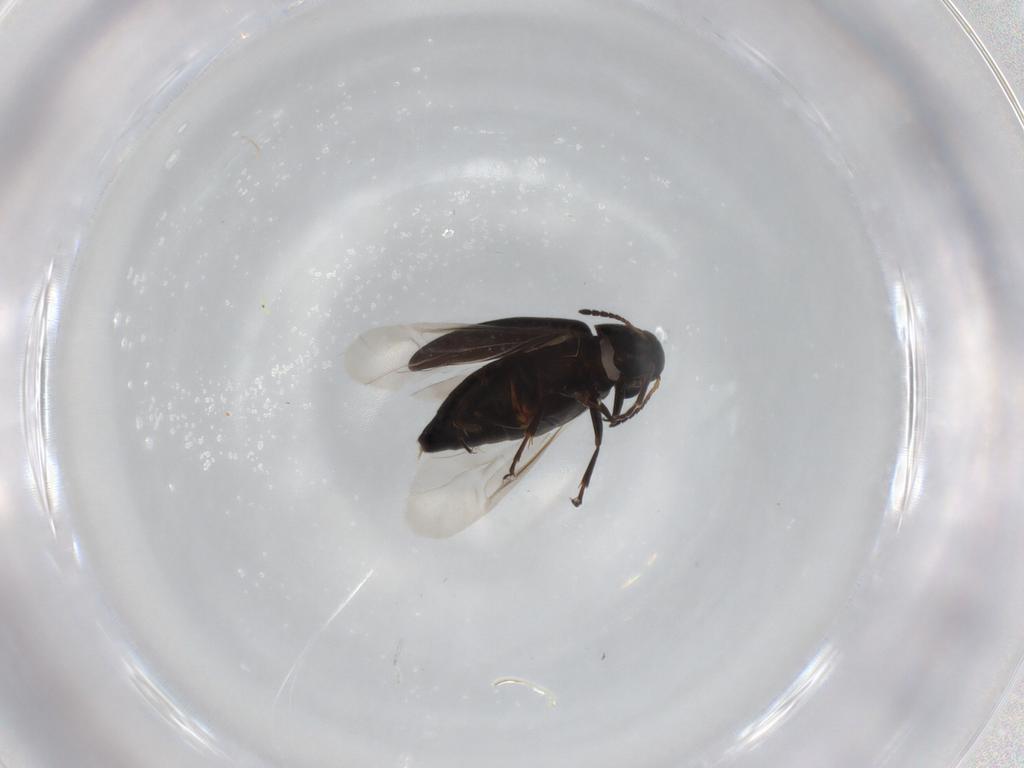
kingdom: Animalia
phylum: Arthropoda
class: Insecta
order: Coleoptera
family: Scraptiidae
